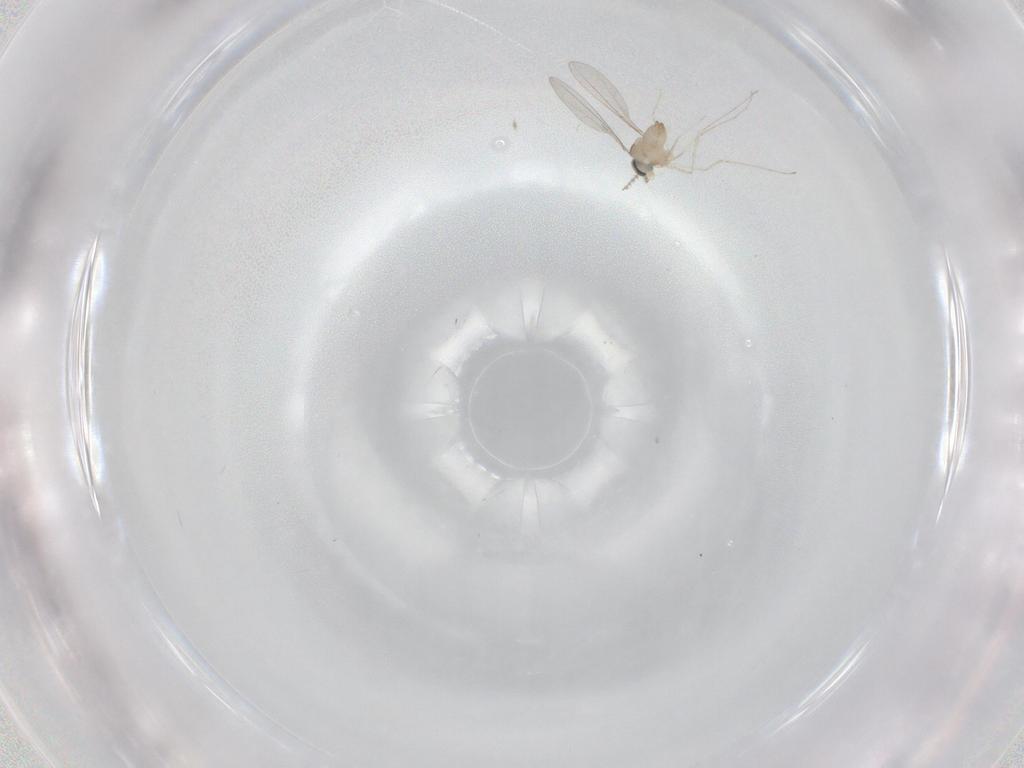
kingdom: Animalia
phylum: Arthropoda
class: Insecta
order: Diptera
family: Cecidomyiidae
